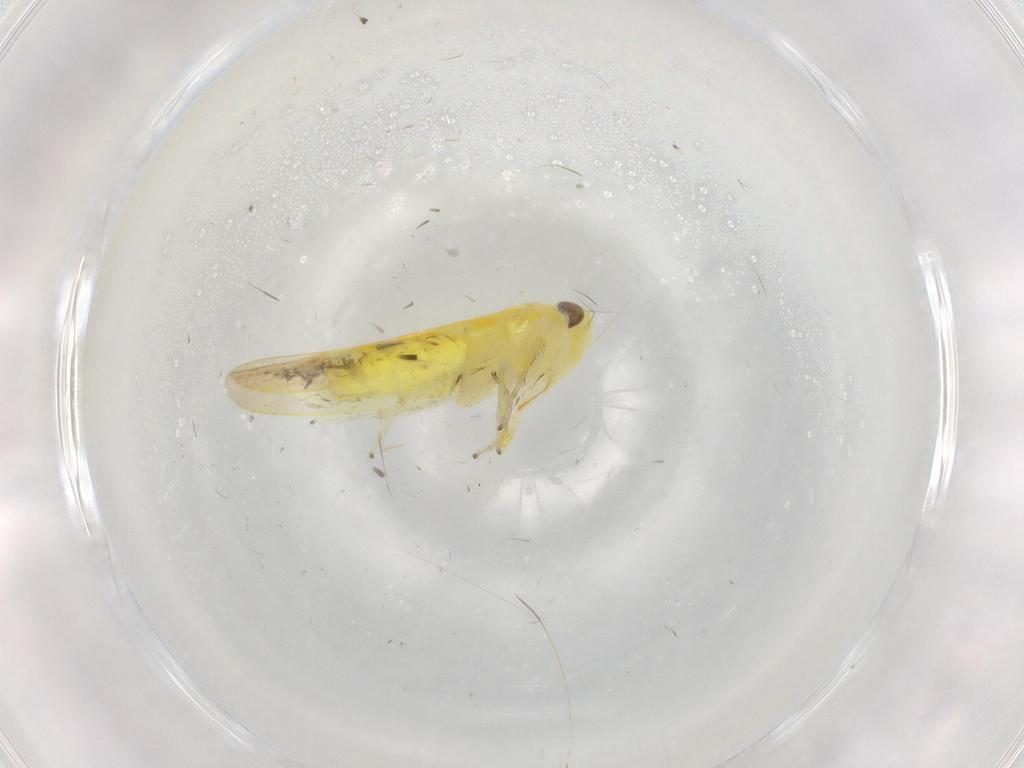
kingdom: Animalia
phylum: Arthropoda
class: Insecta
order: Hemiptera
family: Cicadellidae
